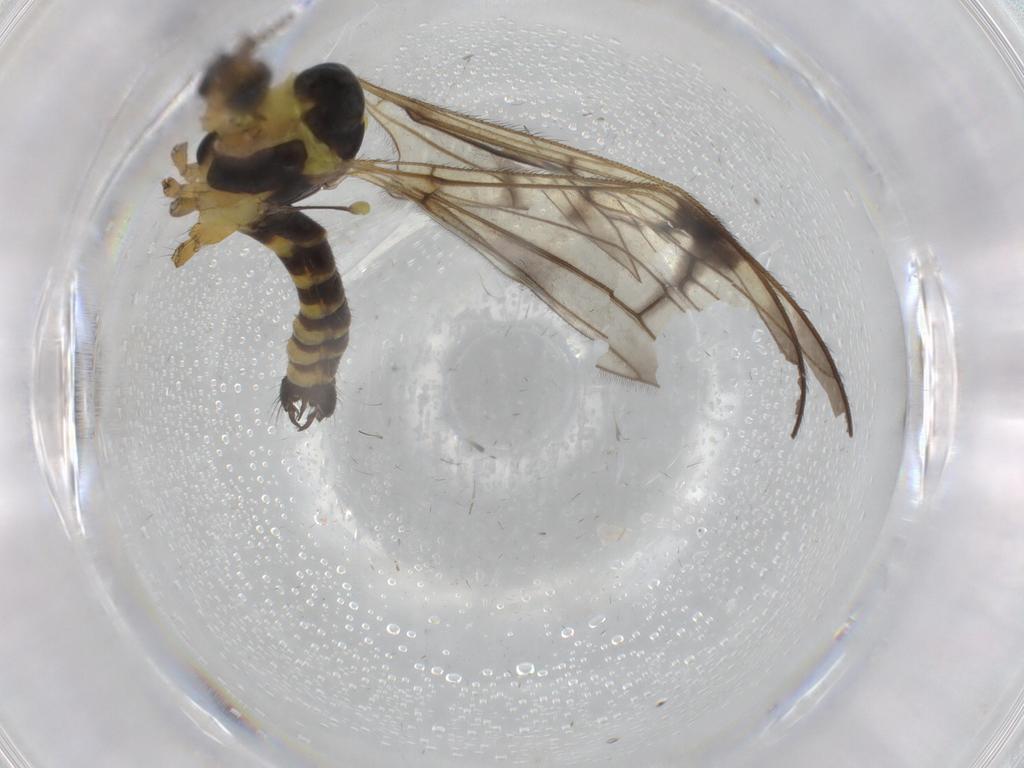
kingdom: Animalia
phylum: Arthropoda
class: Insecta
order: Diptera
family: Limoniidae
